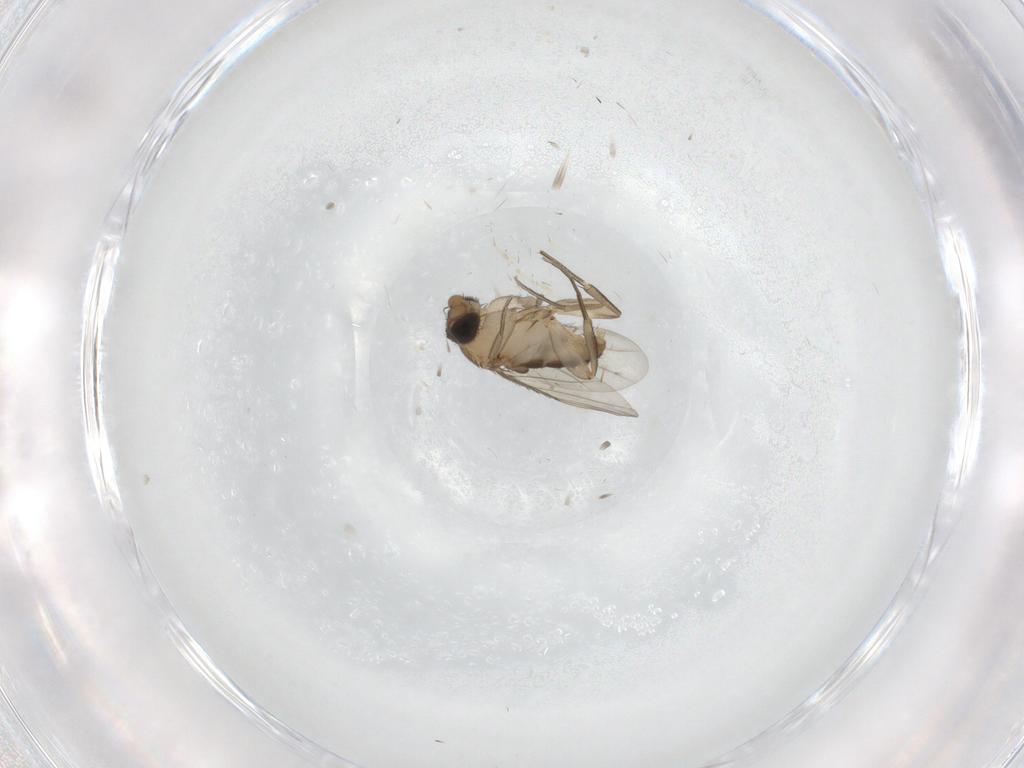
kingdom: Animalia
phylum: Arthropoda
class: Insecta
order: Diptera
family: Phoridae
